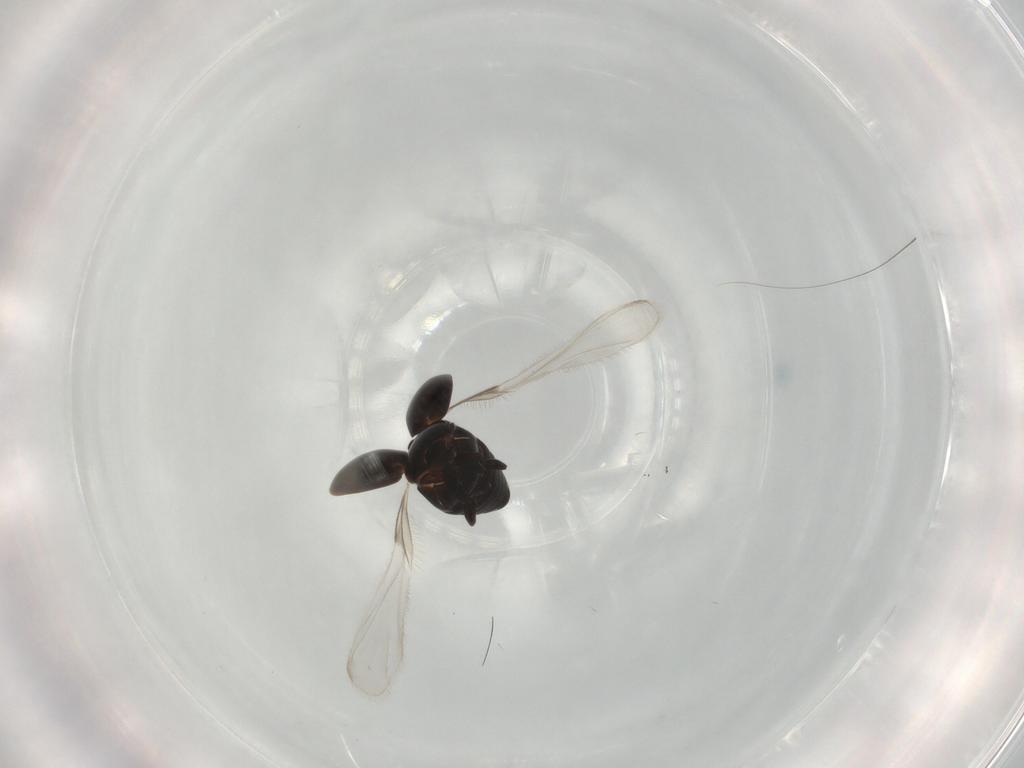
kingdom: Animalia
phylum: Arthropoda
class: Insecta
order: Coleoptera
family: Corylophidae
